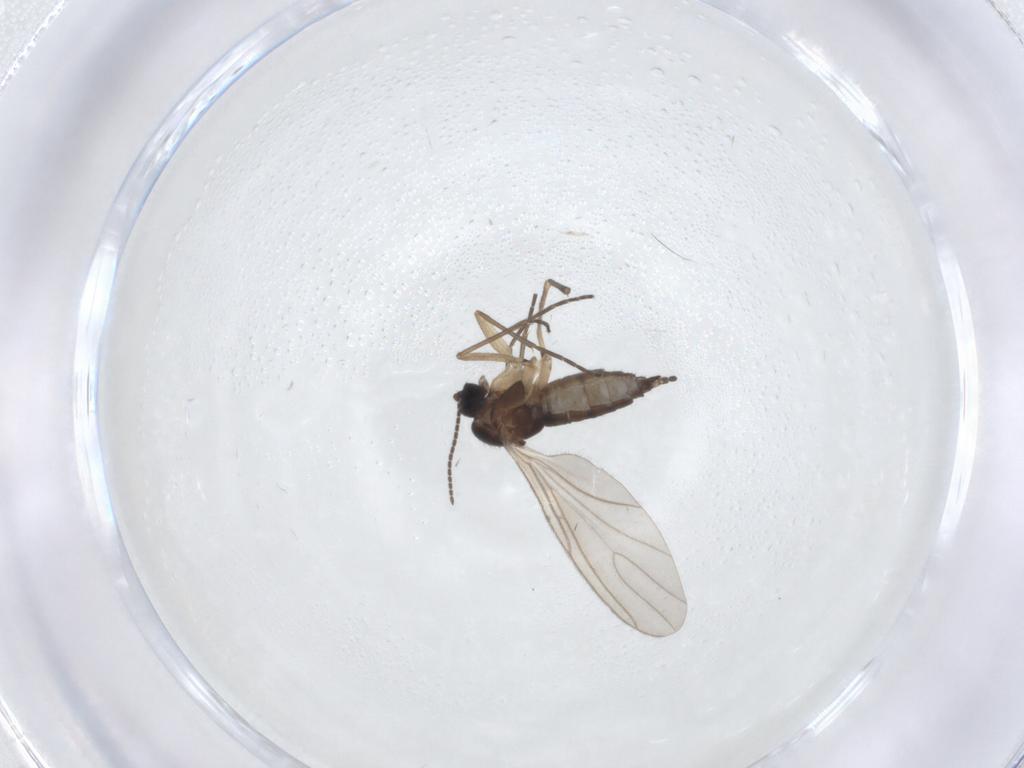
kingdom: Animalia
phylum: Arthropoda
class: Insecta
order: Diptera
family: Sciaridae
